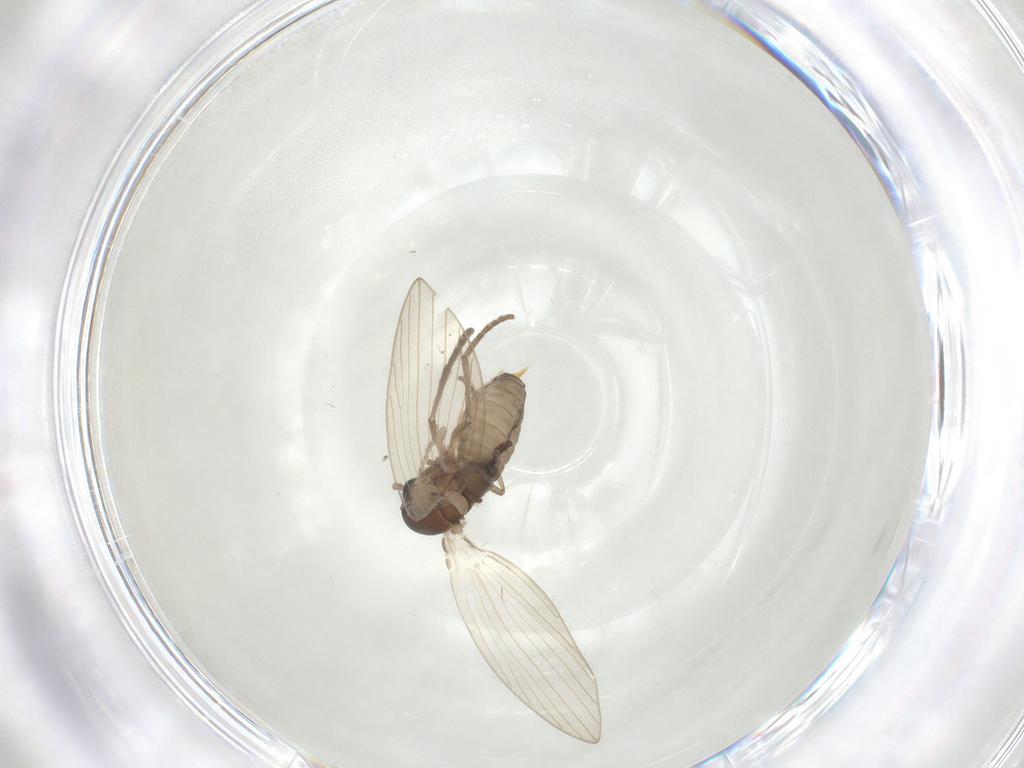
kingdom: Animalia
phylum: Arthropoda
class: Insecta
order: Diptera
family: Psychodidae
